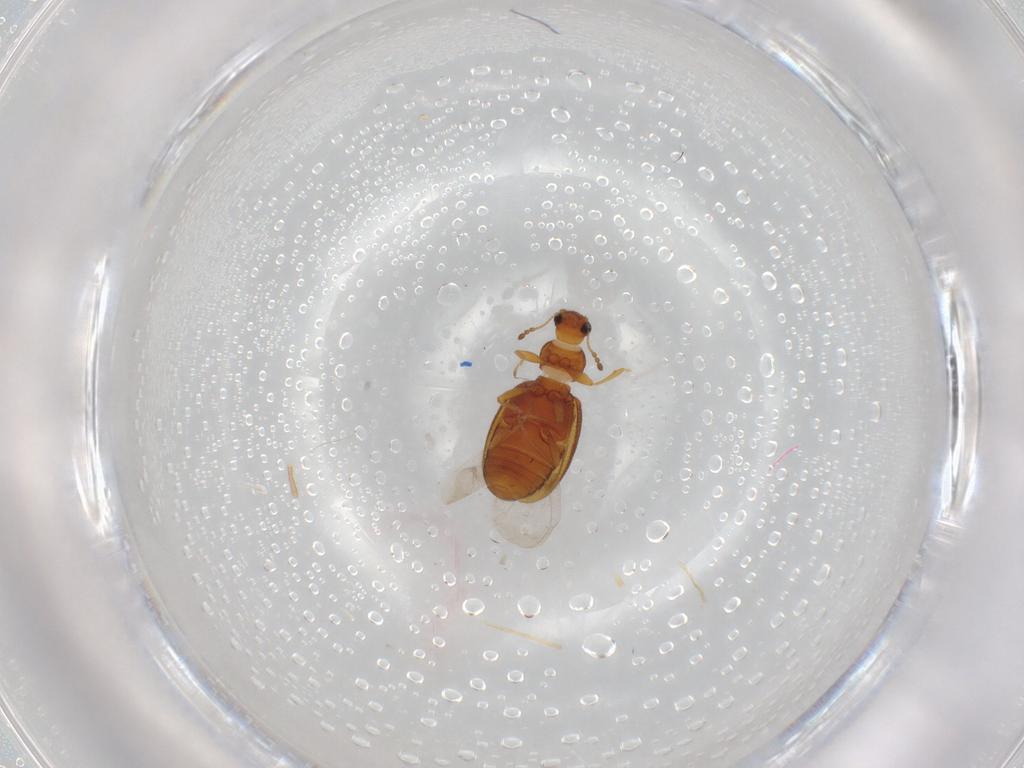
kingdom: Animalia
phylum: Arthropoda
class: Insecta
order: Coleoptera
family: Latridiidae
